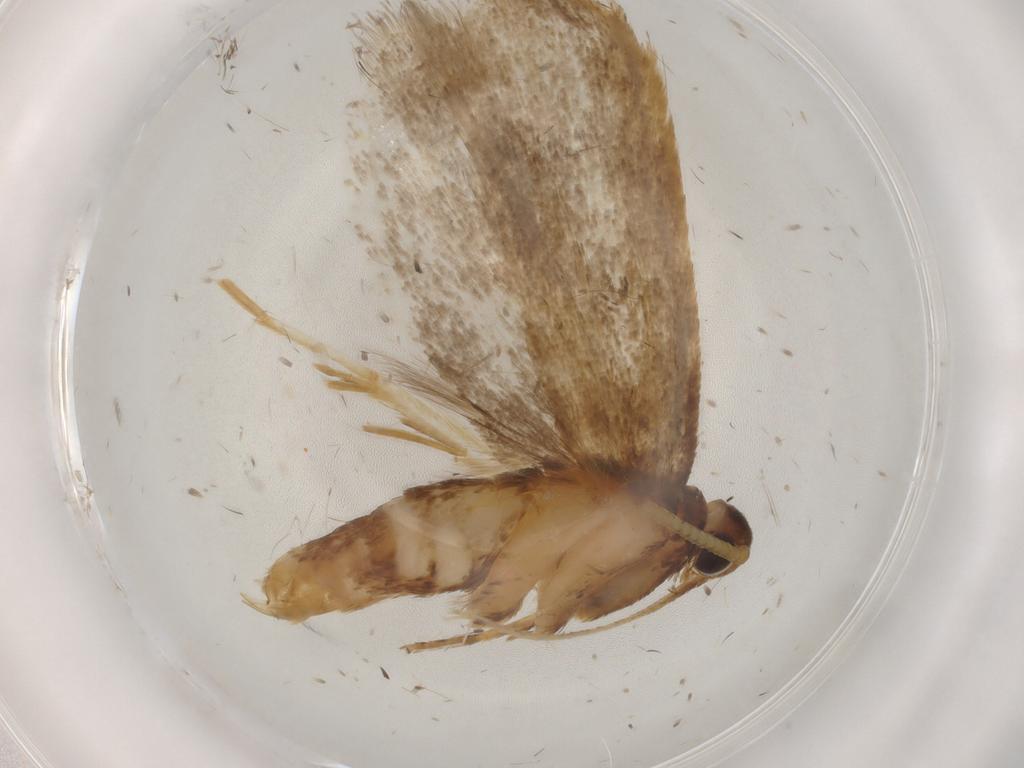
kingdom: Animalia
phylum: Arthropoda
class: Insecta
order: Lepidoptera
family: Lecithoceridae
